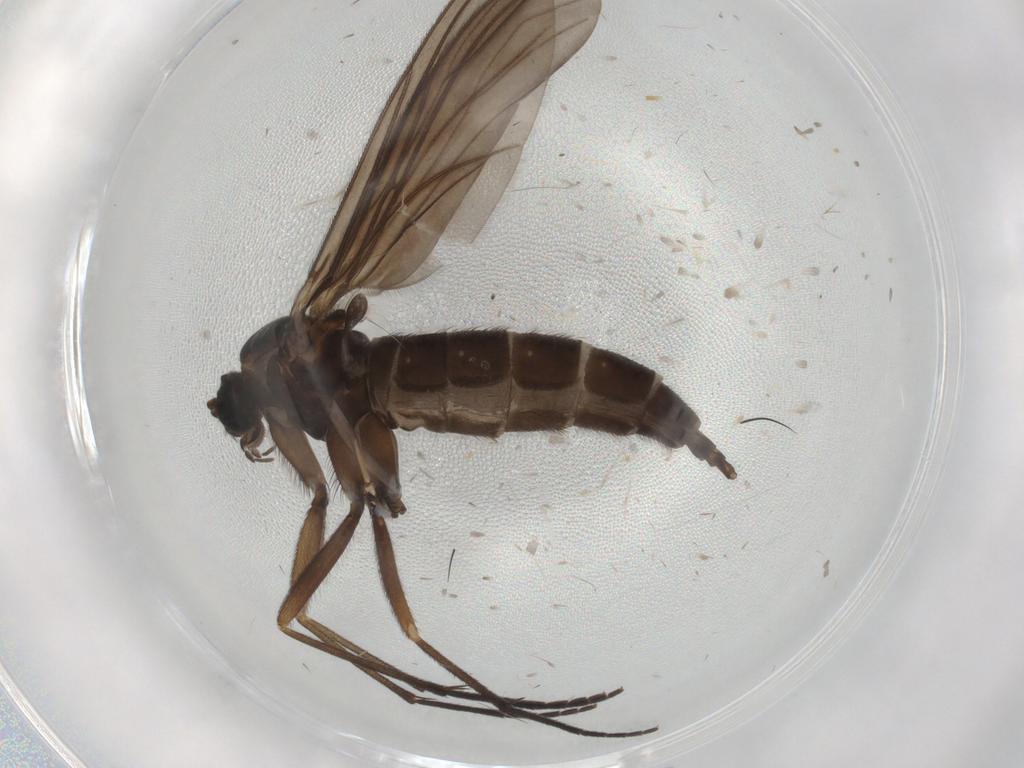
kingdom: Animalia
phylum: Arthropoda
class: Insecta
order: Diptera
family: Sciaridae
